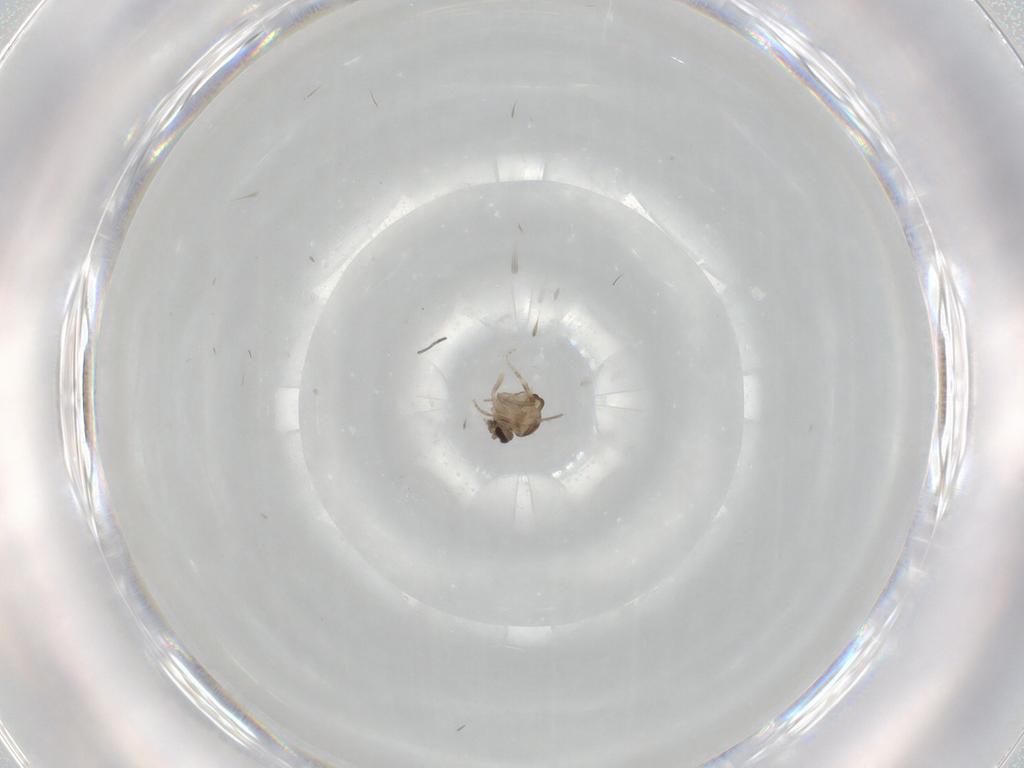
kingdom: Animalia
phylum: Arthropoda
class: Insecta
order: Diptera
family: Ceratopogonidae
